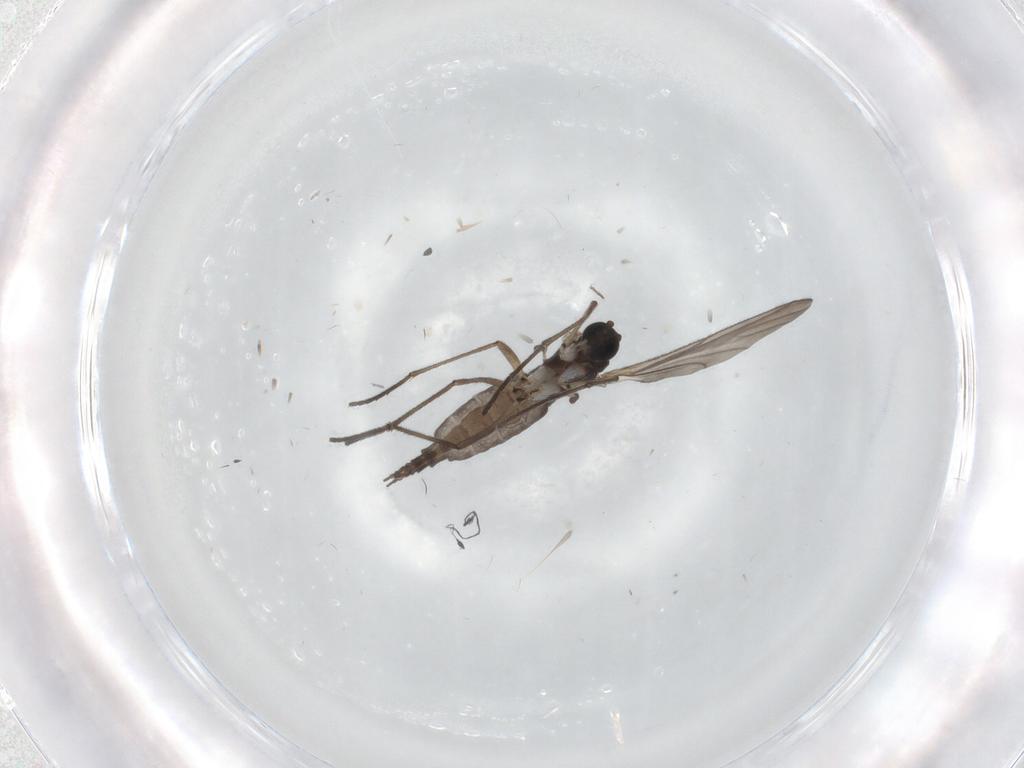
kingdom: Animalia
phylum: Arthropoda
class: Insecta
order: Diptera
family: Sciaridae
